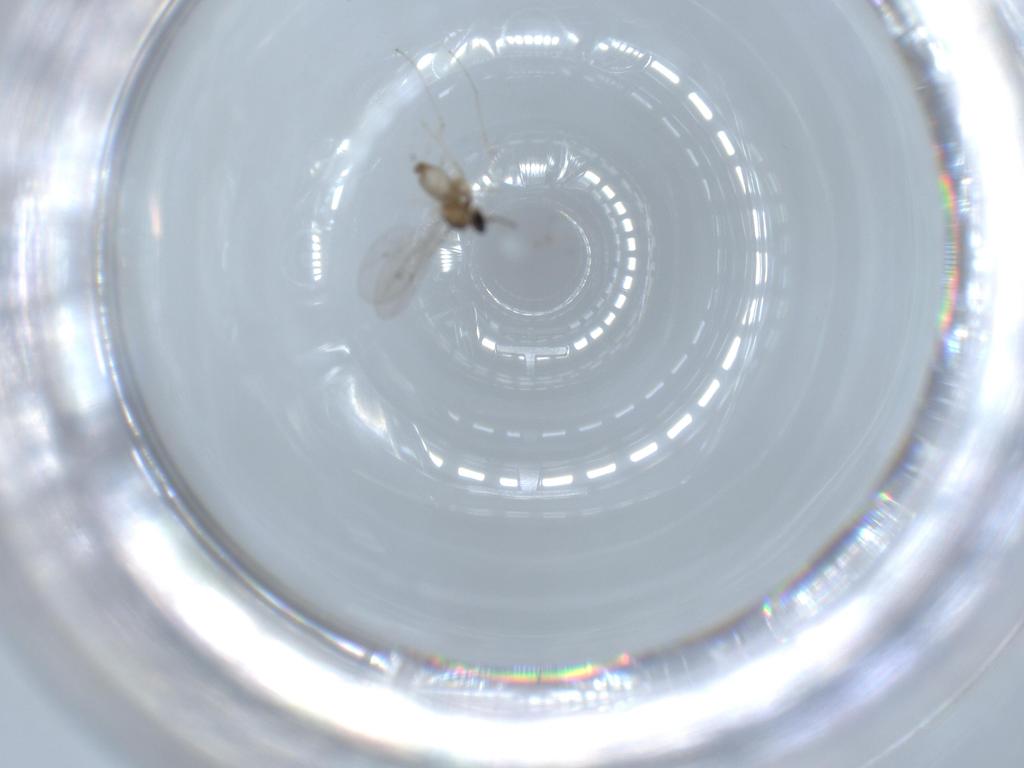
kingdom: Animalia
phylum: Arthropoda
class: Insecta
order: Diptera
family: Cecidomyiidae
